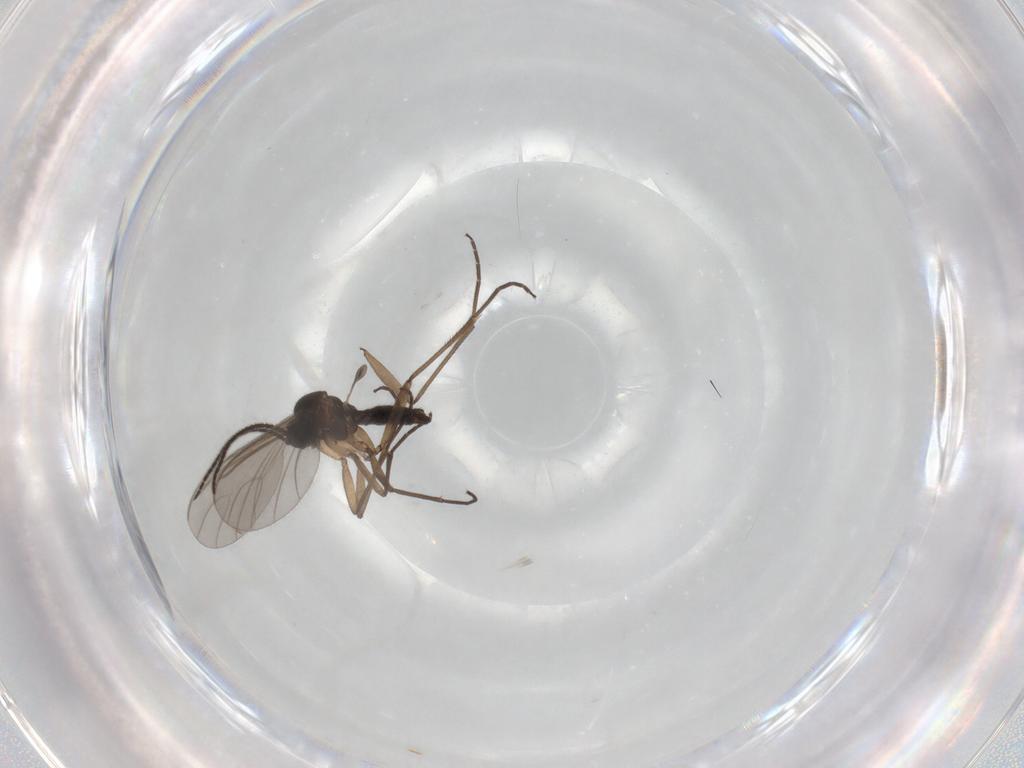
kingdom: Animalia
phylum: Arthropoda
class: Insecta
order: Diptera
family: Sciaridae
